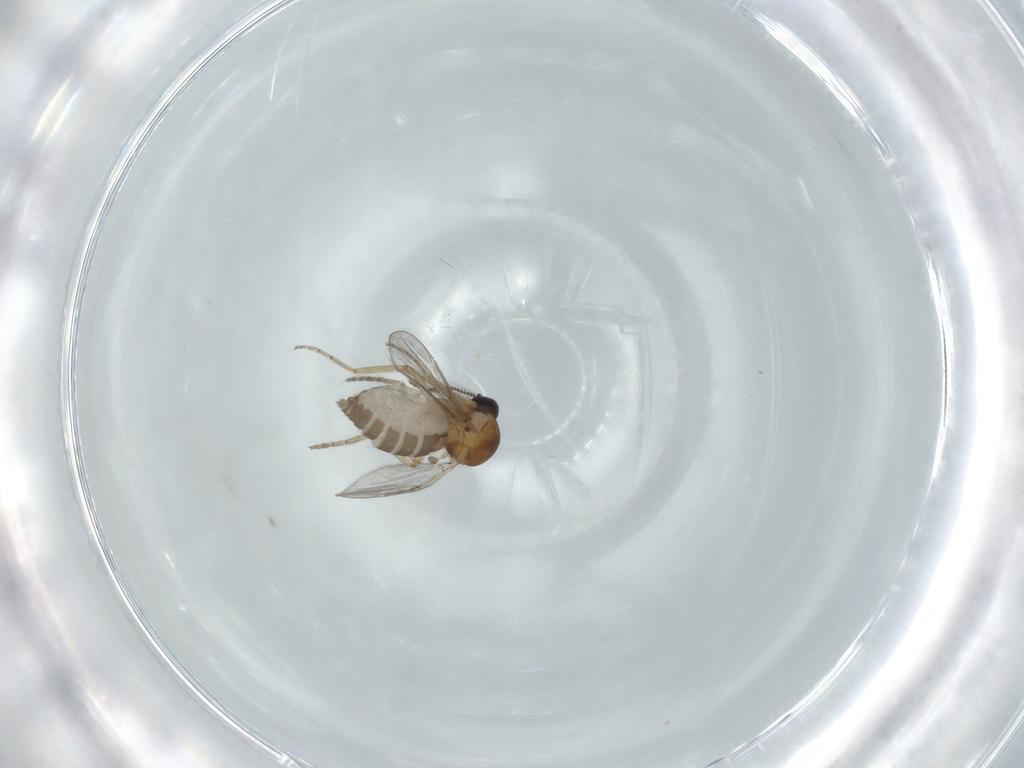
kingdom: Animalia
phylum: Arthropoda
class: Insecta
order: Diptera
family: Ceratopogonidae
